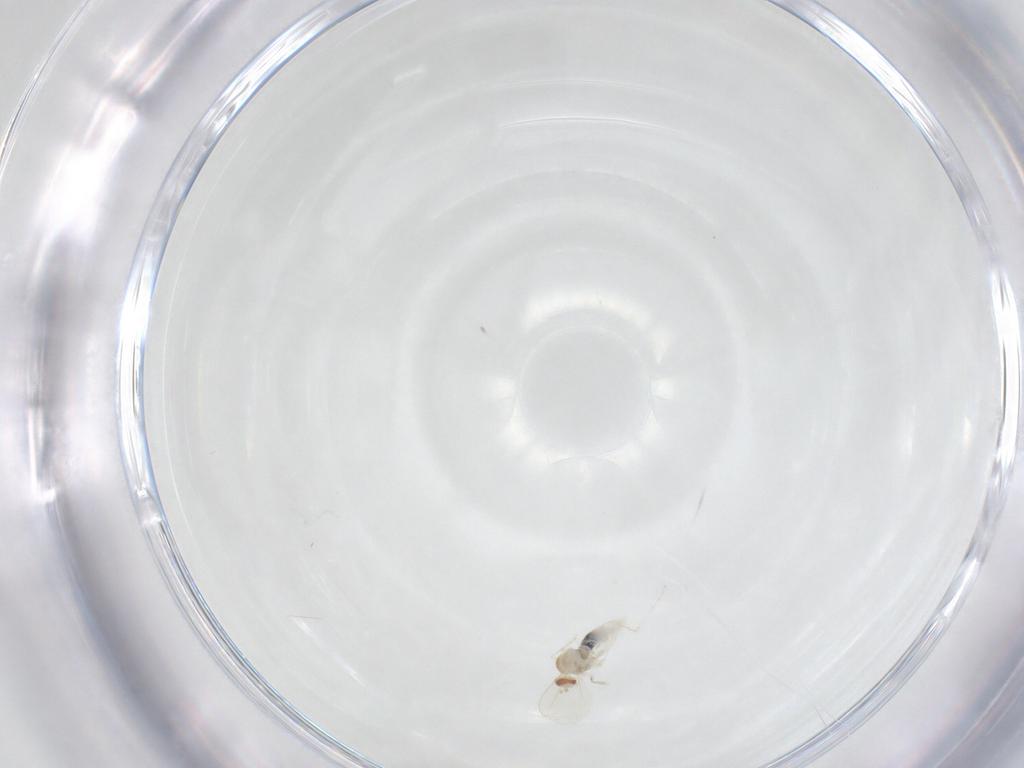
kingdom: Animalia
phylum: Arthropoda
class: Insecta
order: Diptera
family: Cecidomyiidae
